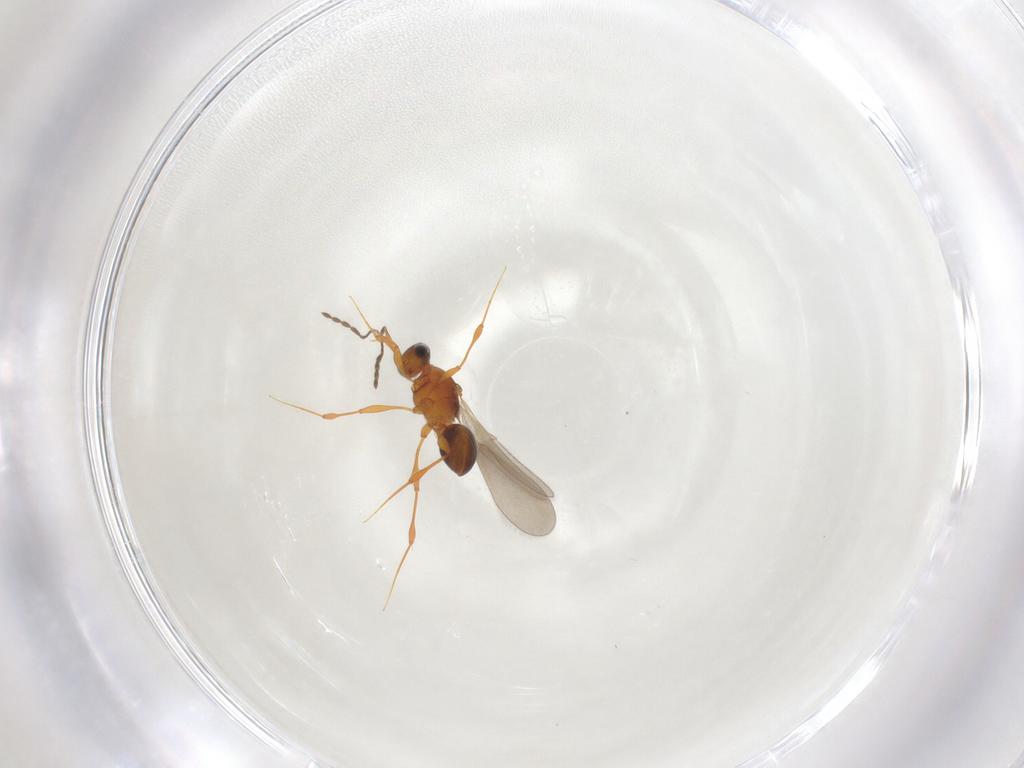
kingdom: Animalia
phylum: Arthropoda
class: Insecta
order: Hymenoptera
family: Platygastridae
